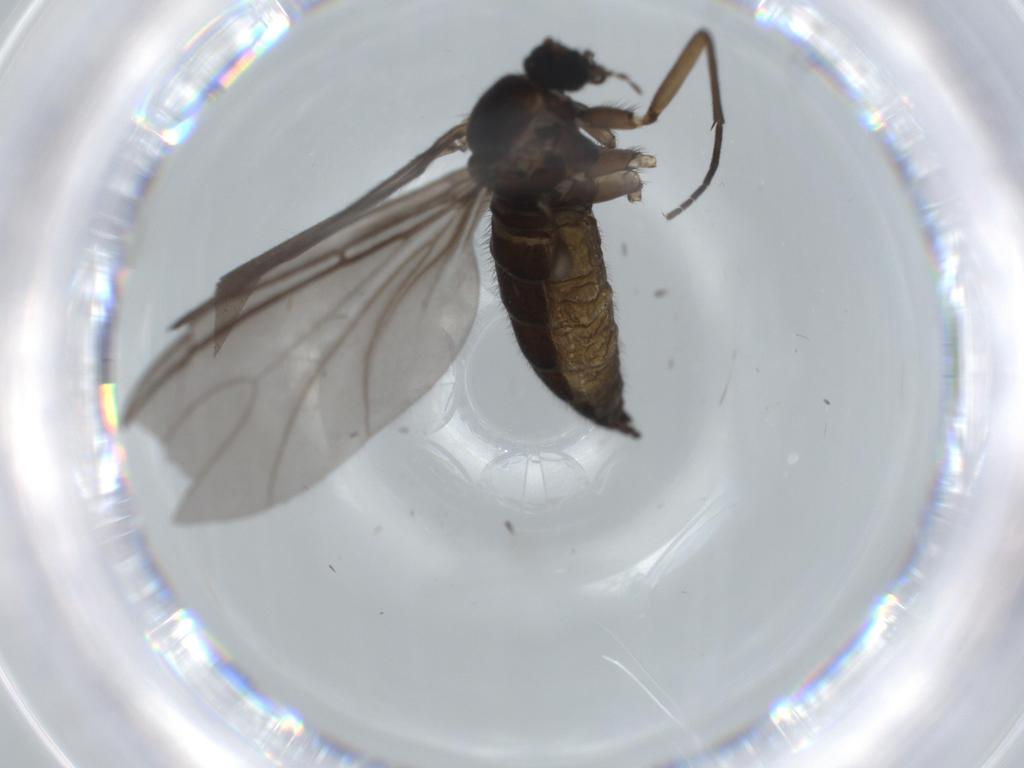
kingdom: Animalia
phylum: Arthropoda
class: Insecta
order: Diptera
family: Sciaridae
